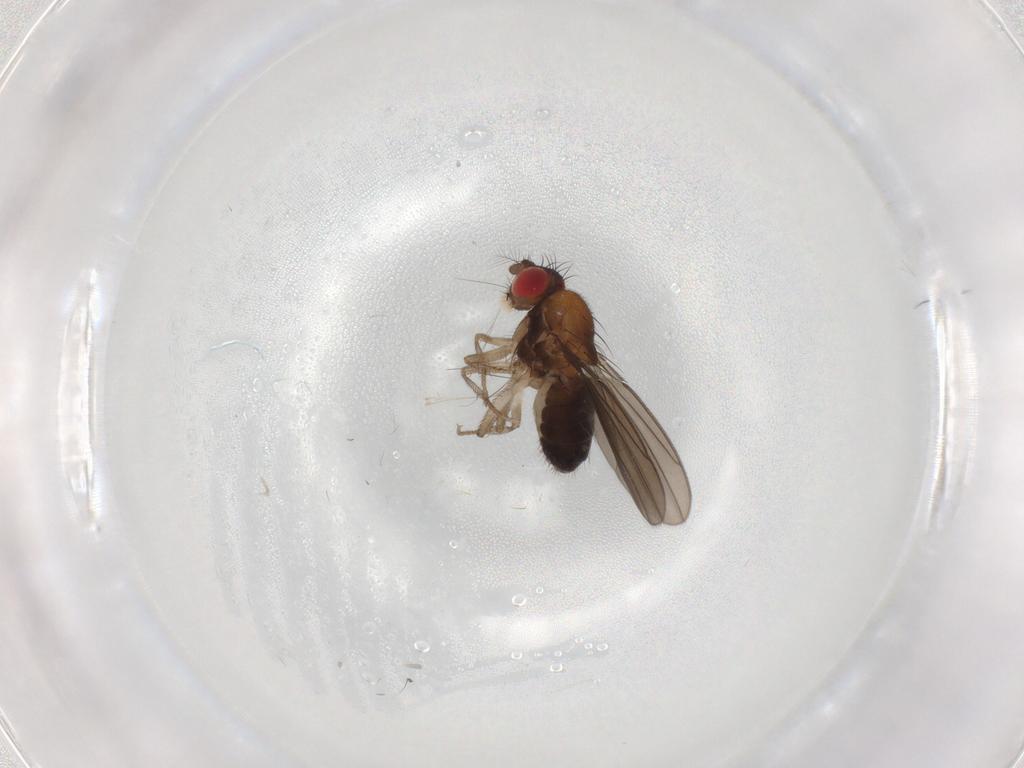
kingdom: Animalia
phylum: Arthropoda
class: Insecta
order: Diptera
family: Drosophilidae
